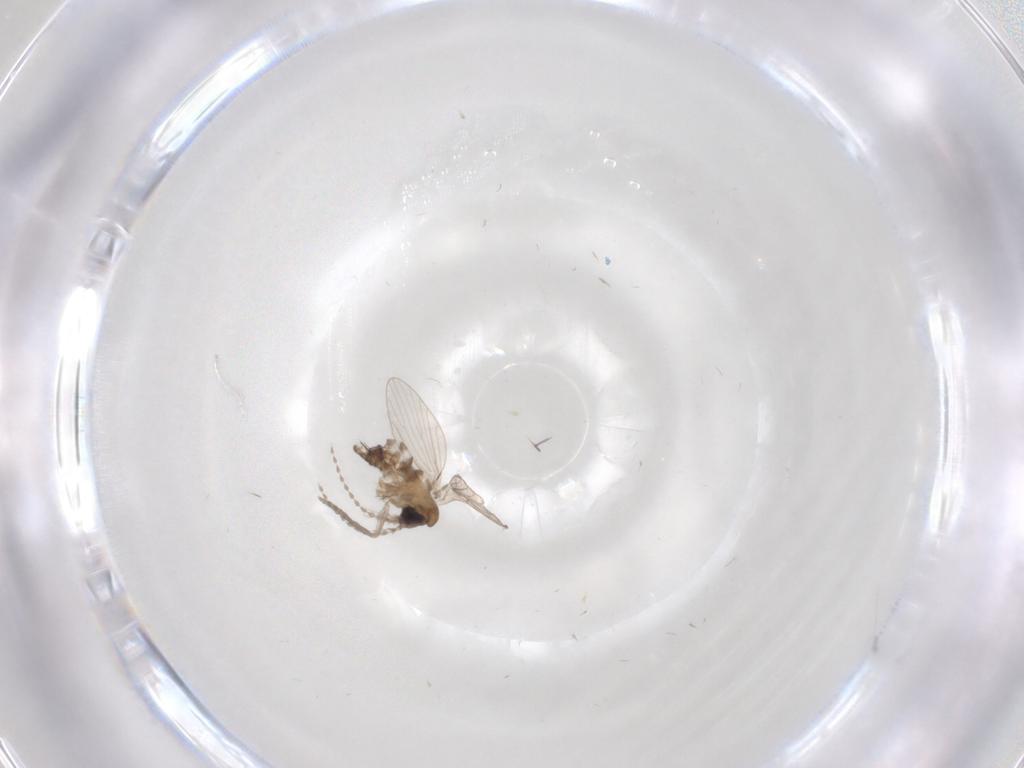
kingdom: Animalia
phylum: Arthropoda
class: Insecta
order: Diptera
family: Hybotidae
